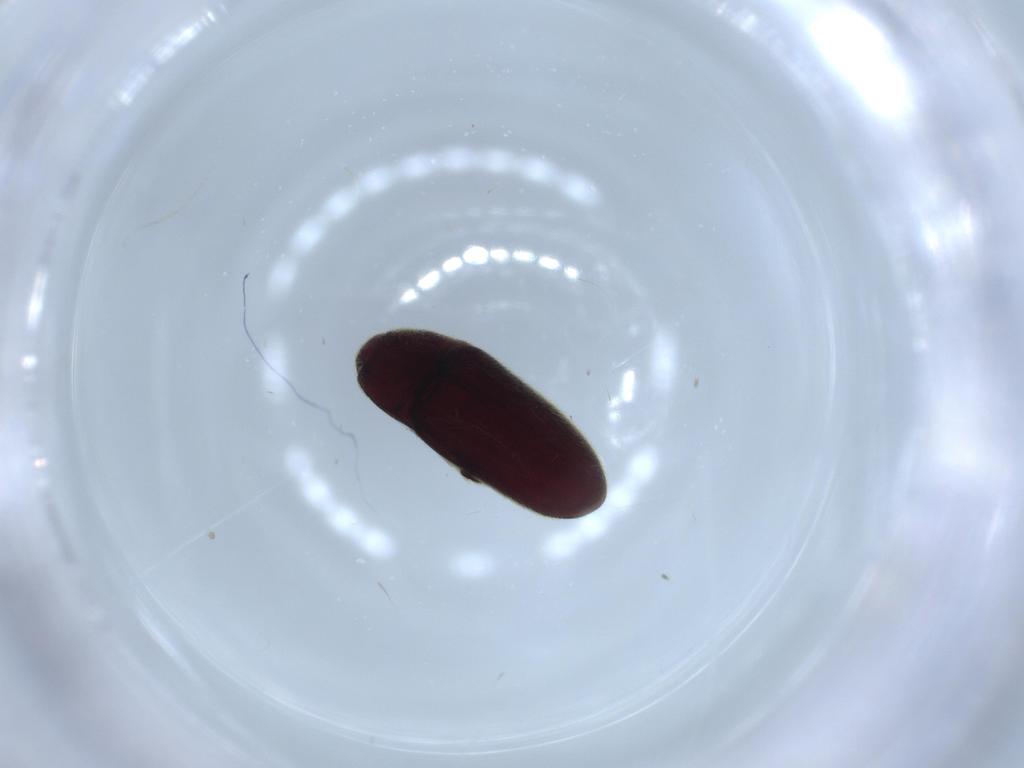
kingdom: Animalia
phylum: Arthropoda
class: Insecta
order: Coleoptera
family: Throscidae
